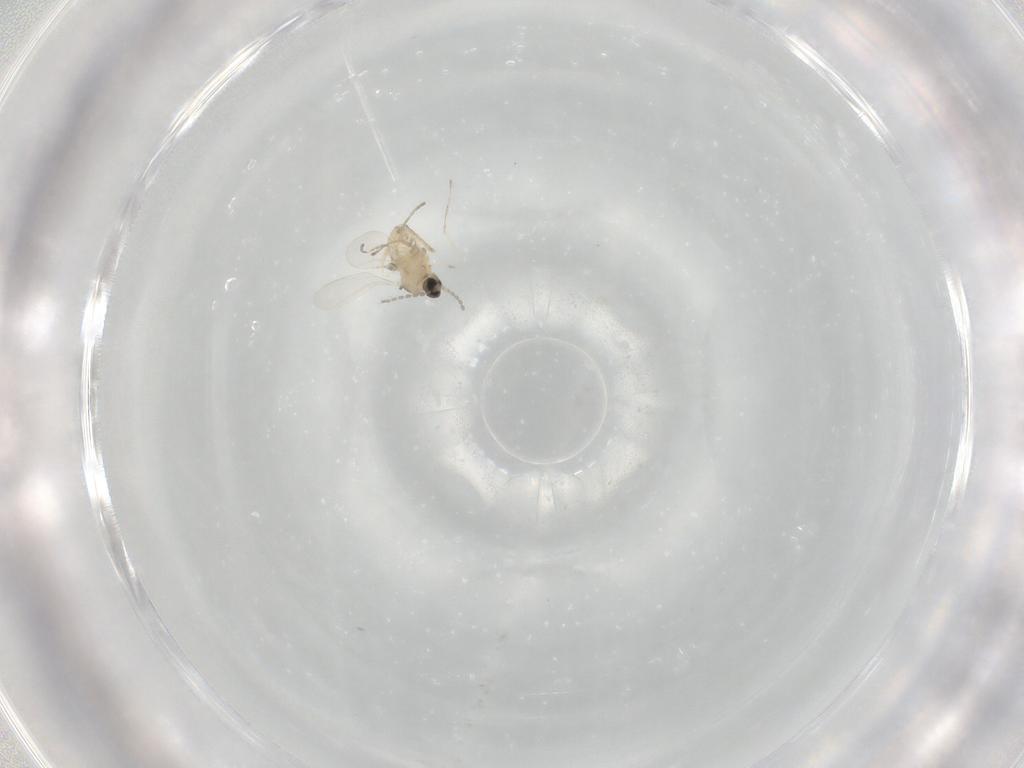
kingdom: Animalia
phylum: Arthropoda
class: Insecta
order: Diptera
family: Cecidomyiidae
